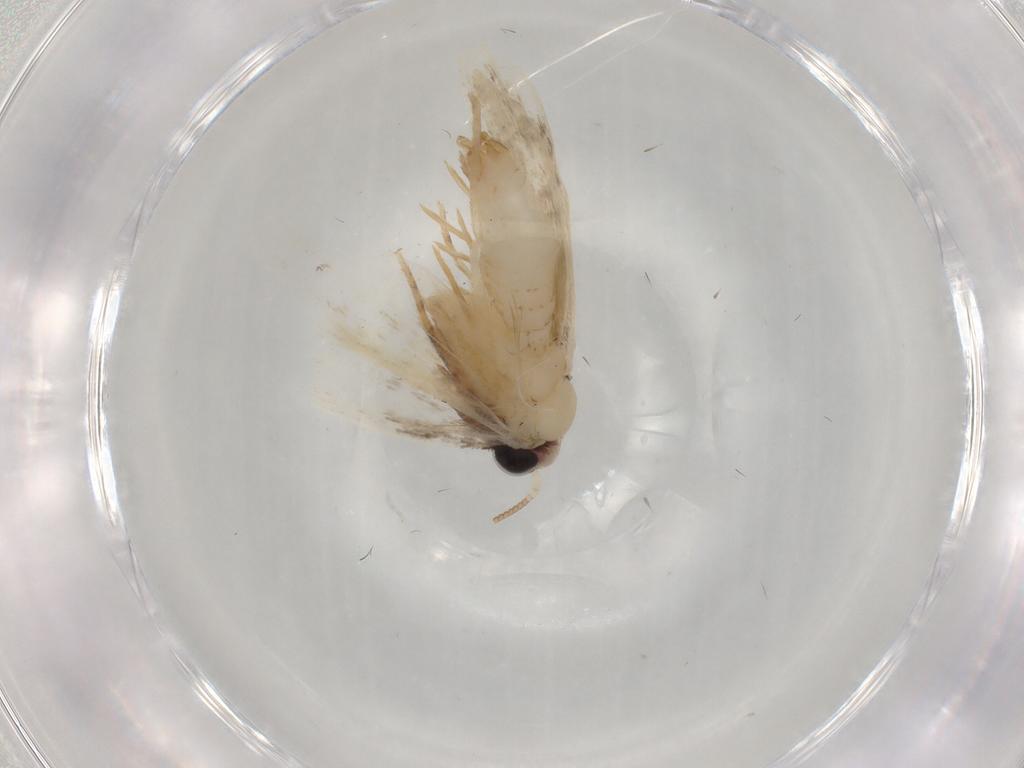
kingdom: Animalia
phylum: Arthropoda
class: Insecta
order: Lepidoptera
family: Psychidae
